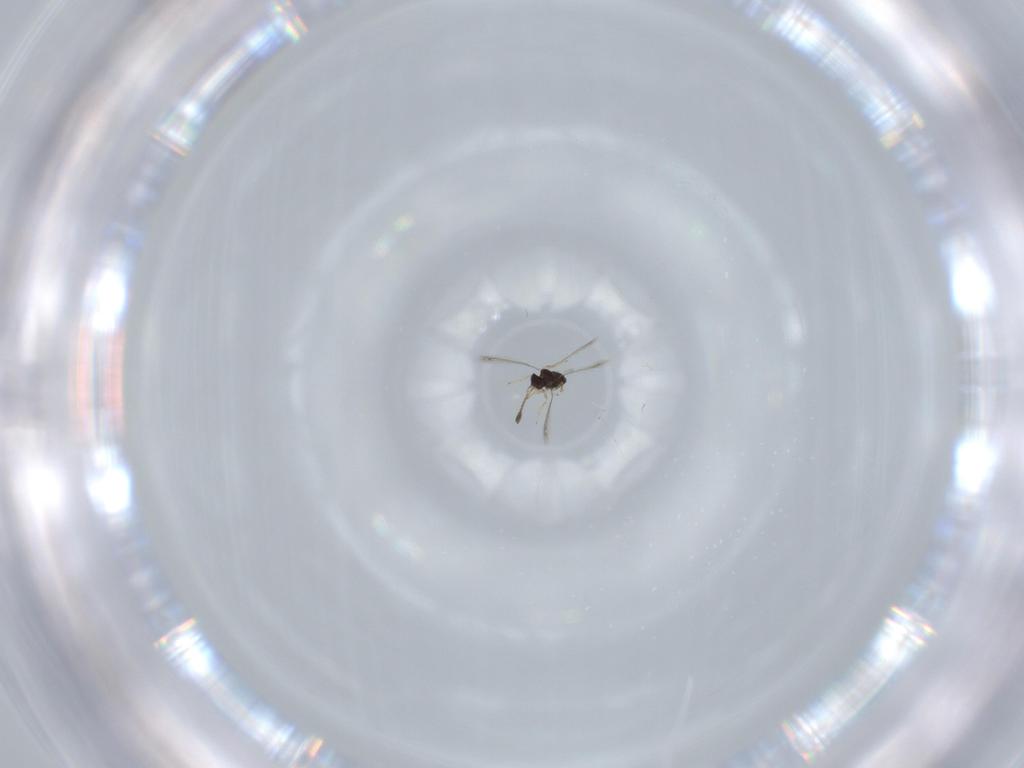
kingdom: Animalia
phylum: Arthropoda
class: Insecta
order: Hymenoptera
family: Mymaridae
